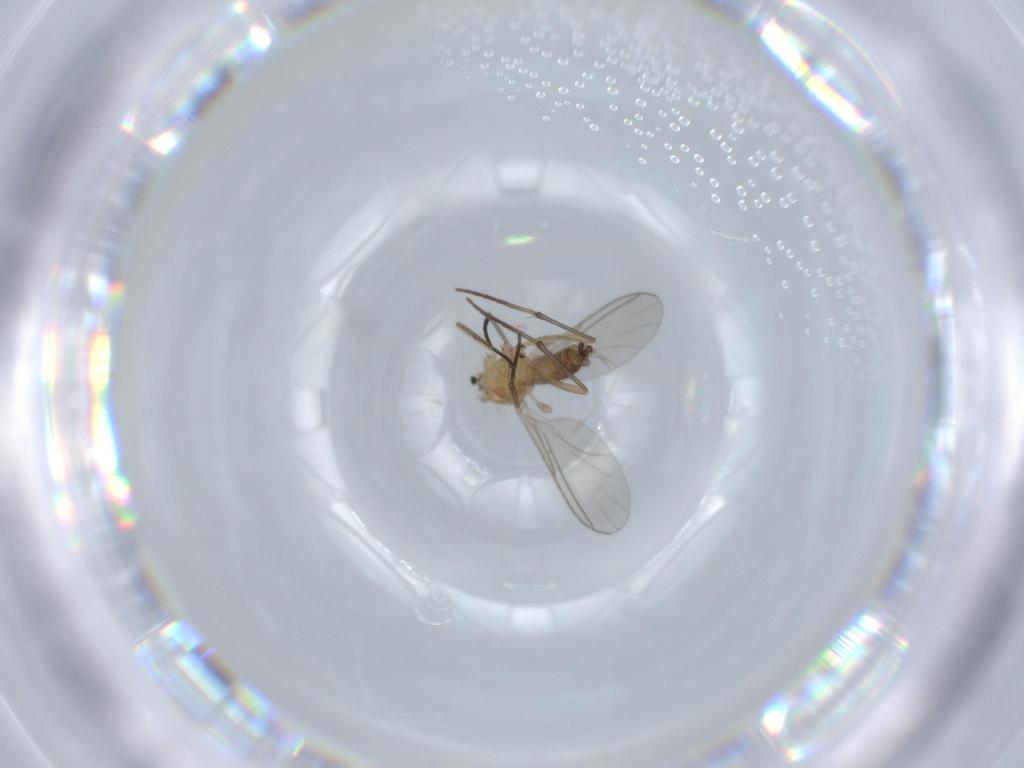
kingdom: Animalia
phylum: Arthropoda
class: Insecta
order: Diptera
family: Sciaridae
